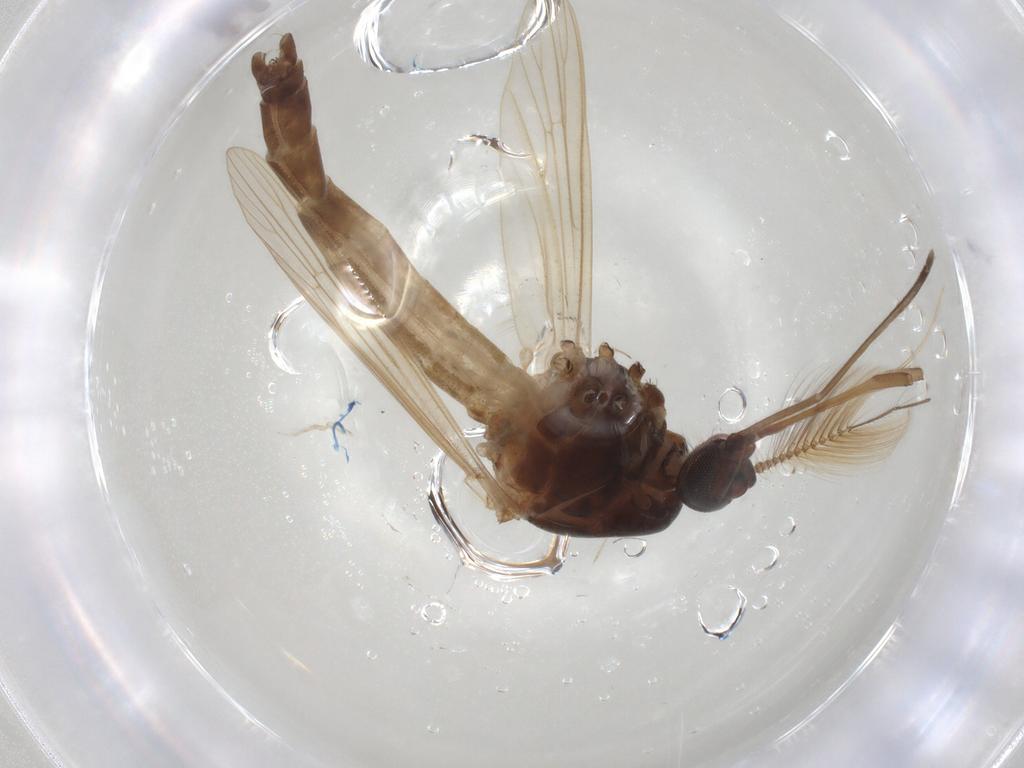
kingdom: Animalia
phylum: Arthropoda
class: Insecta
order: Diptera
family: Culicidae
